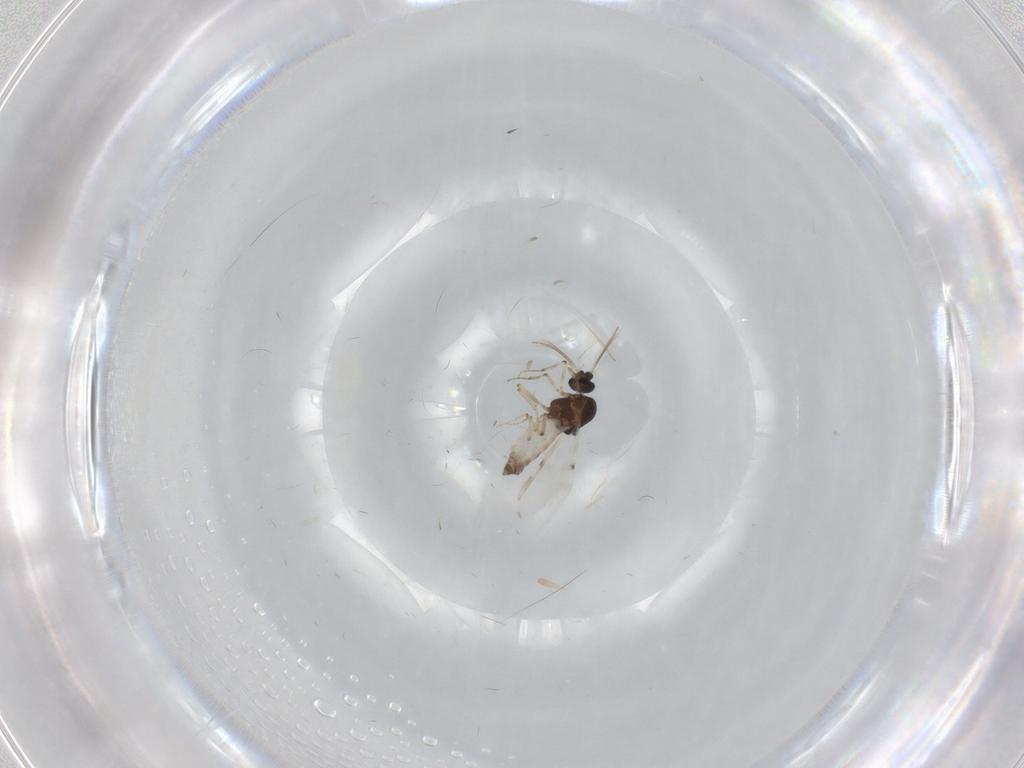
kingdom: Animalia
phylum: Arthropoda
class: Insecta
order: Diptera
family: Chironomidae
